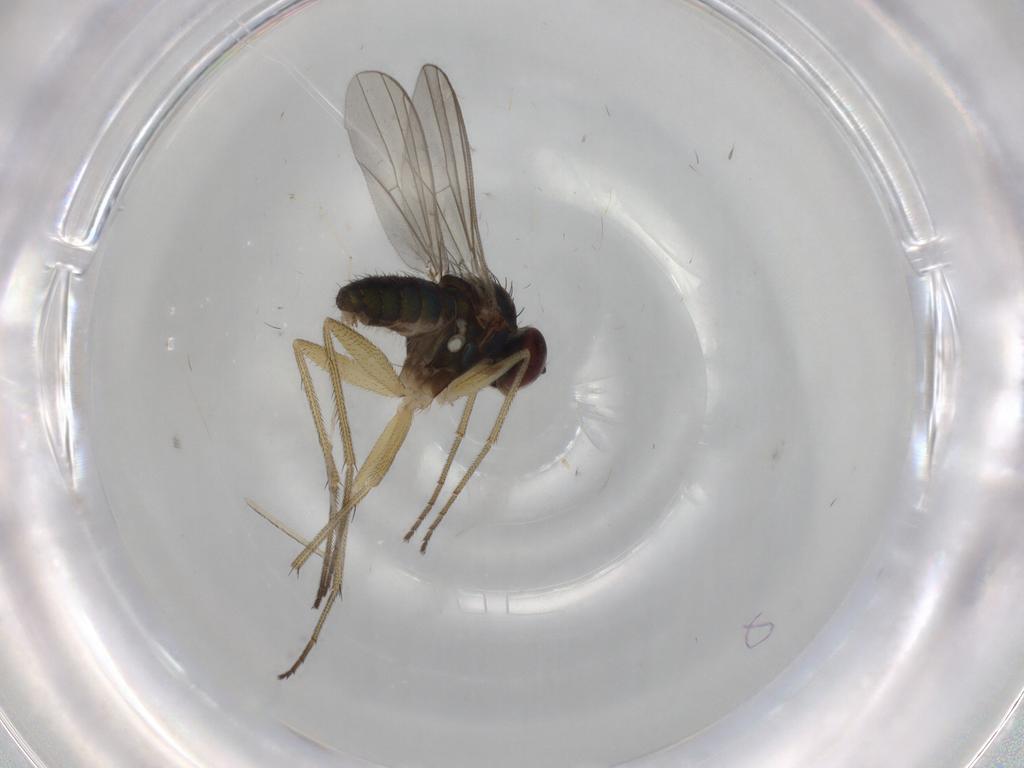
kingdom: Animalia
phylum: Arthropoda
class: Insecta
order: Diptera
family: Dolichopodidae
